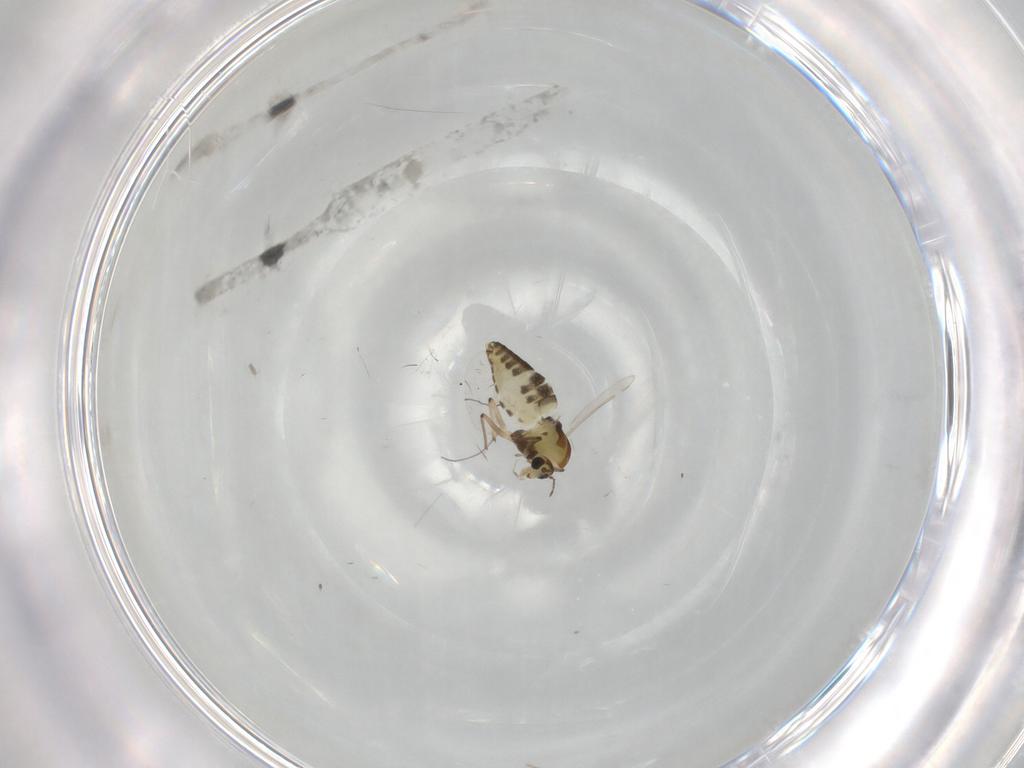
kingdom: Animalia
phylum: Arthropoda
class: Insecta
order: Diptera
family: Chironomidae
